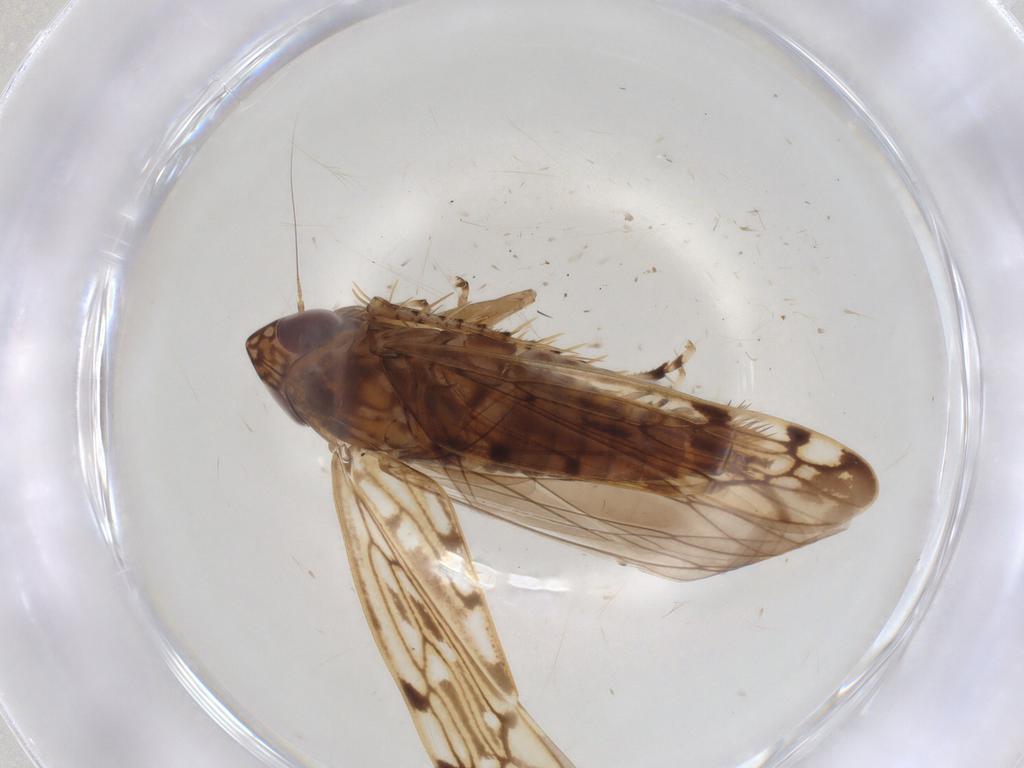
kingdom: Animalia
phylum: Arthropoda
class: Insecta
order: Hemiptera
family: Cicadellidae
